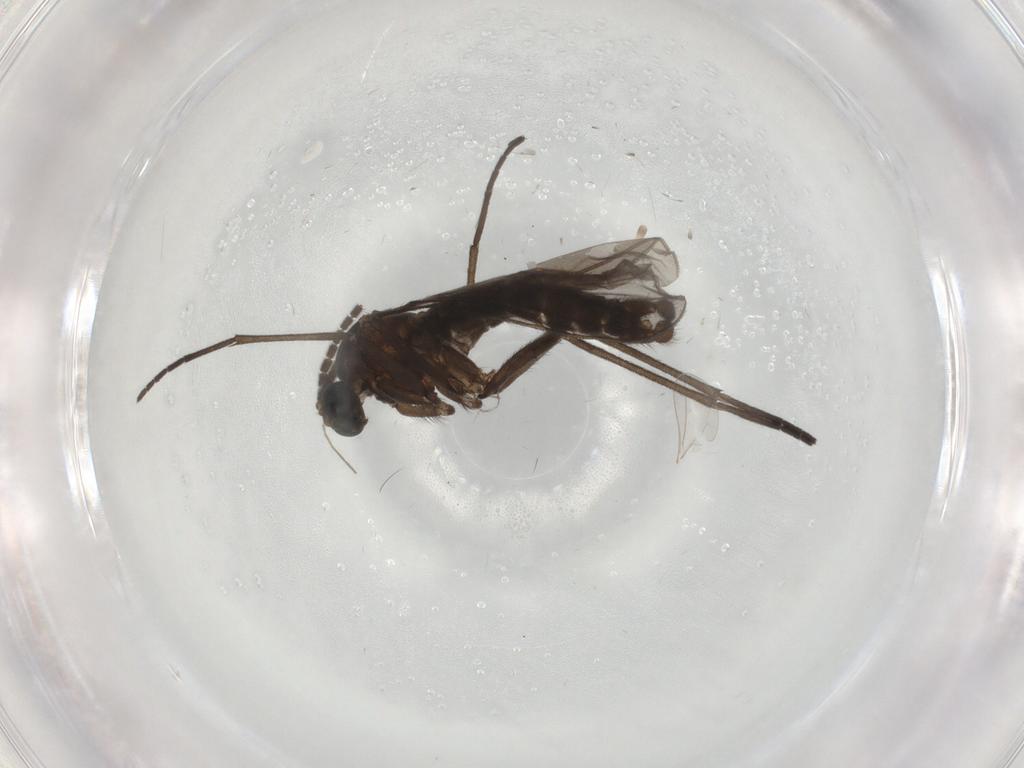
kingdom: Animalia
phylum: Arthropoda
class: Insecta
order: Diptera
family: Sciaridae
